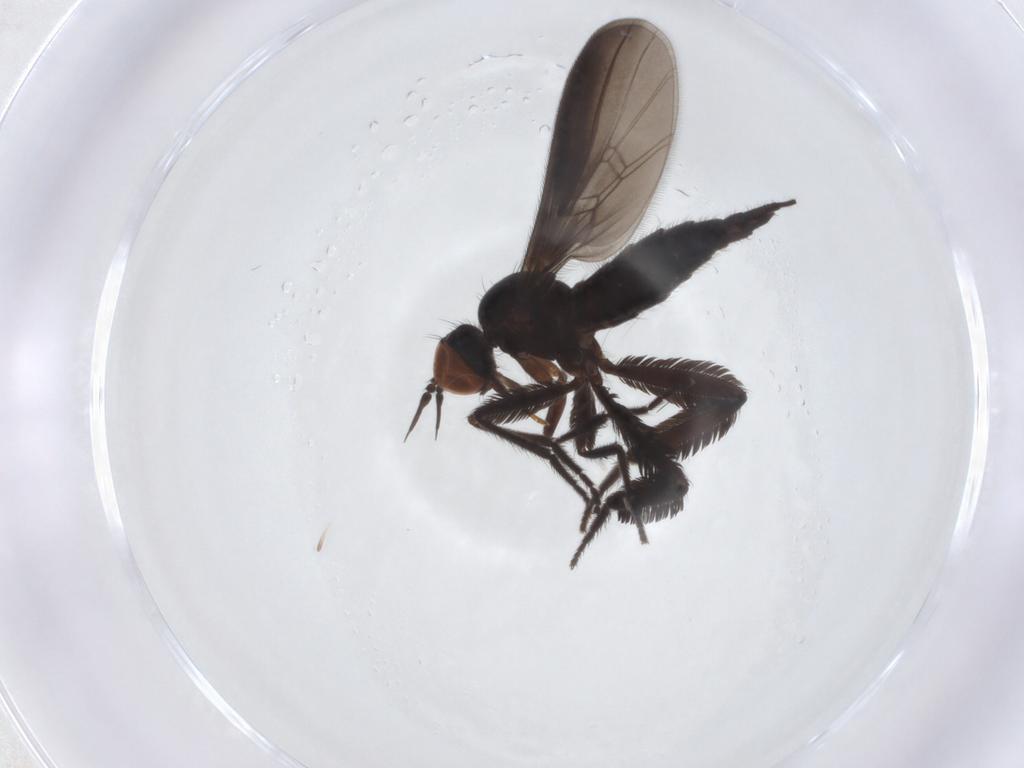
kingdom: Animalia
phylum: Arthropoda
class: Insecta
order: Diptera
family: Empididae
